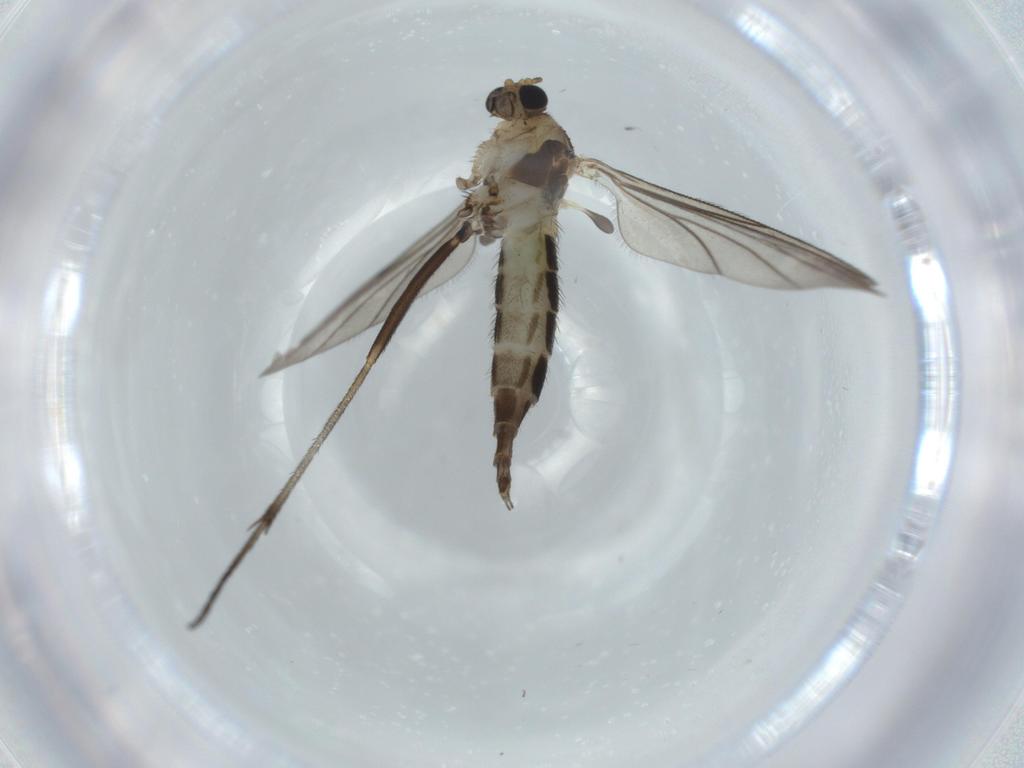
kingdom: Animalia
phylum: Arthropoda
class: Insecta
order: Diptera
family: Sciaridae
